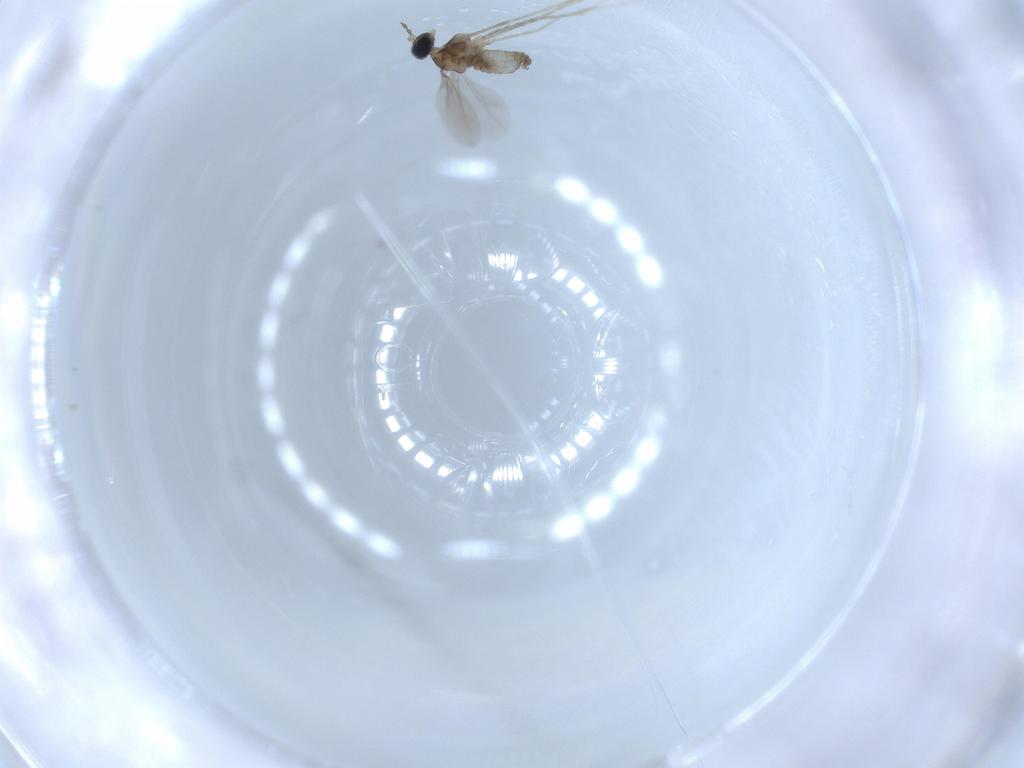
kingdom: Animalia
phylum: Arthropoda
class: Insecta
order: Diptera
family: Cecidomyiidae
